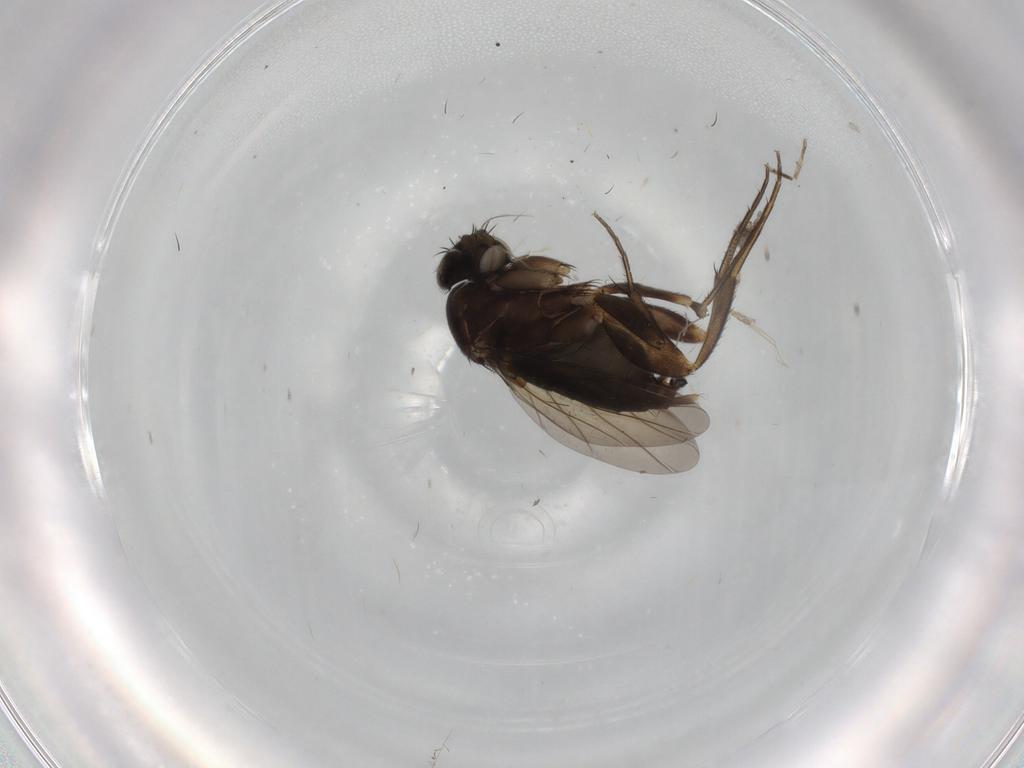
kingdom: Animalia
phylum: Arthropoda
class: Insecta
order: Diptera
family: Phoridae
